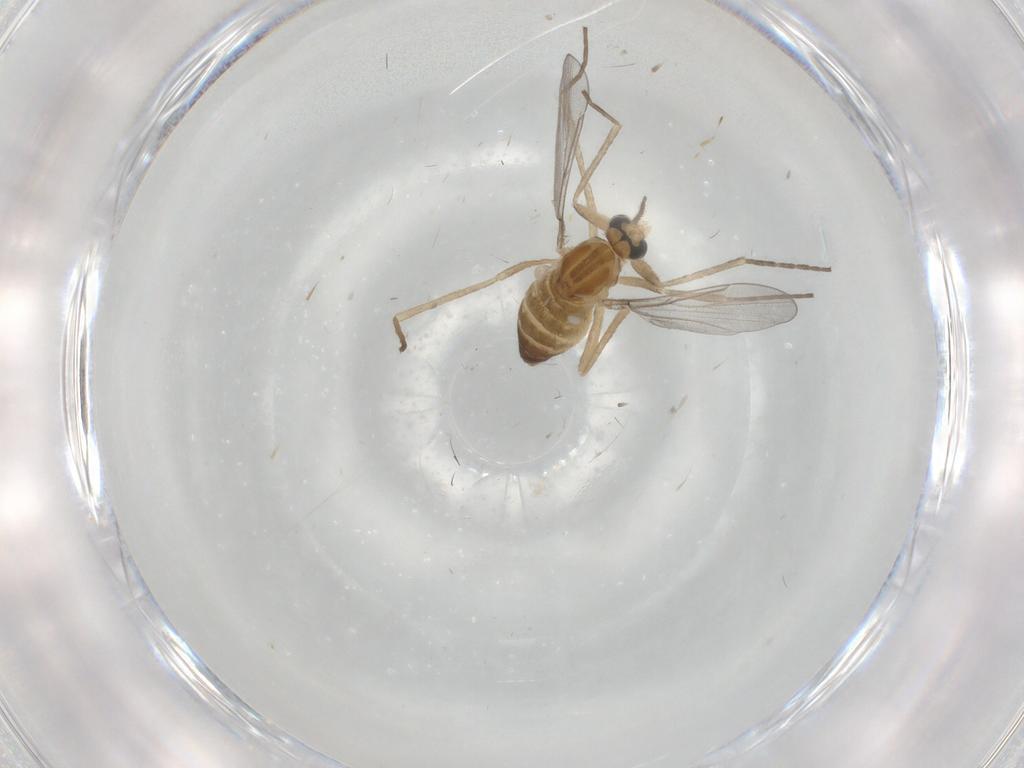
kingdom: Animalia
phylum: Arthropoda
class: Insecta
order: Diptera
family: Cecidomyiidae
